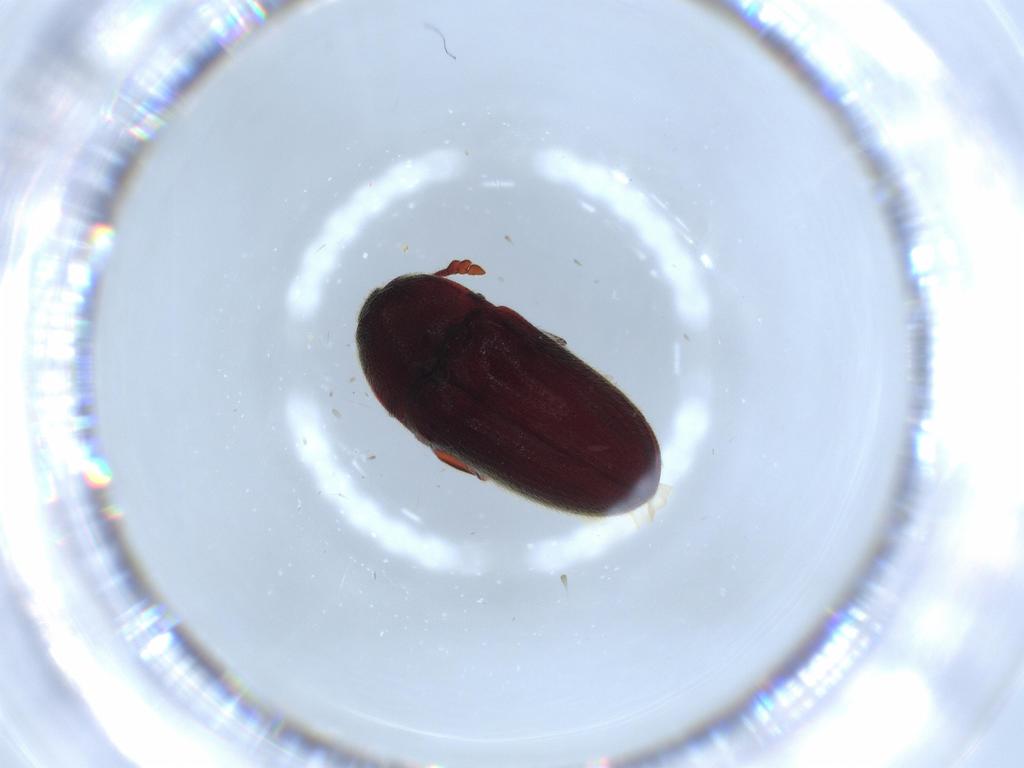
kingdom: Animalia
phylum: Arthropoda
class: Insecta
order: Coleoptera
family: Throscidae
